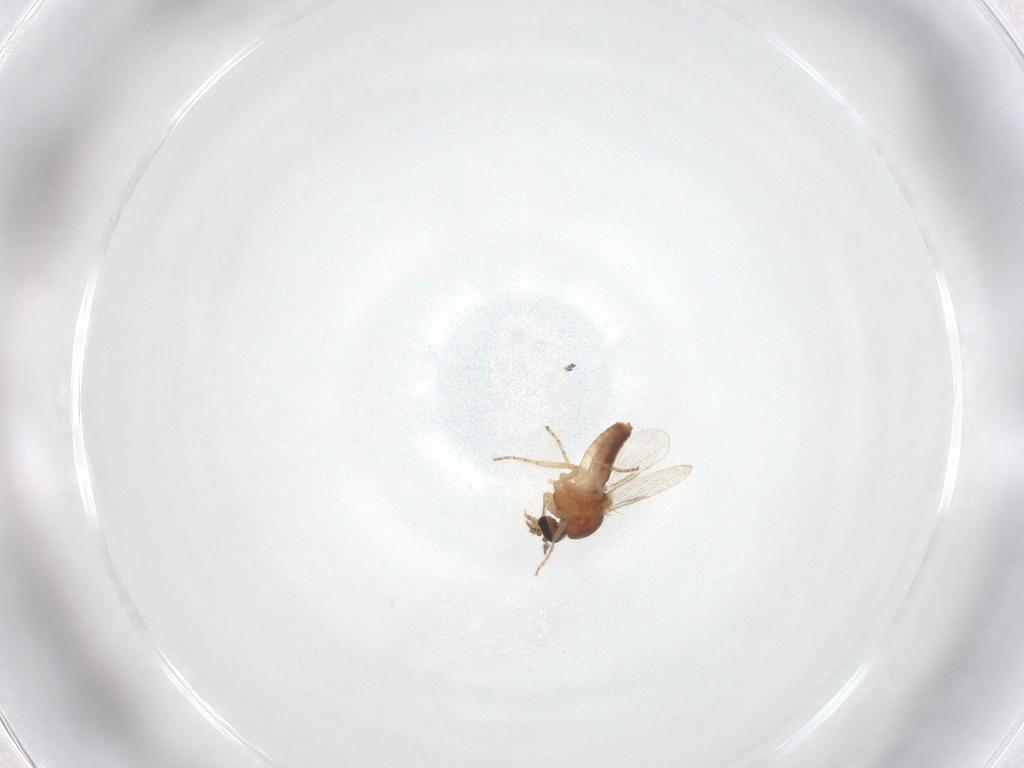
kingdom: Animalia
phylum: Arthropoda
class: Insecta
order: Diptera
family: Ceratopogonidae
